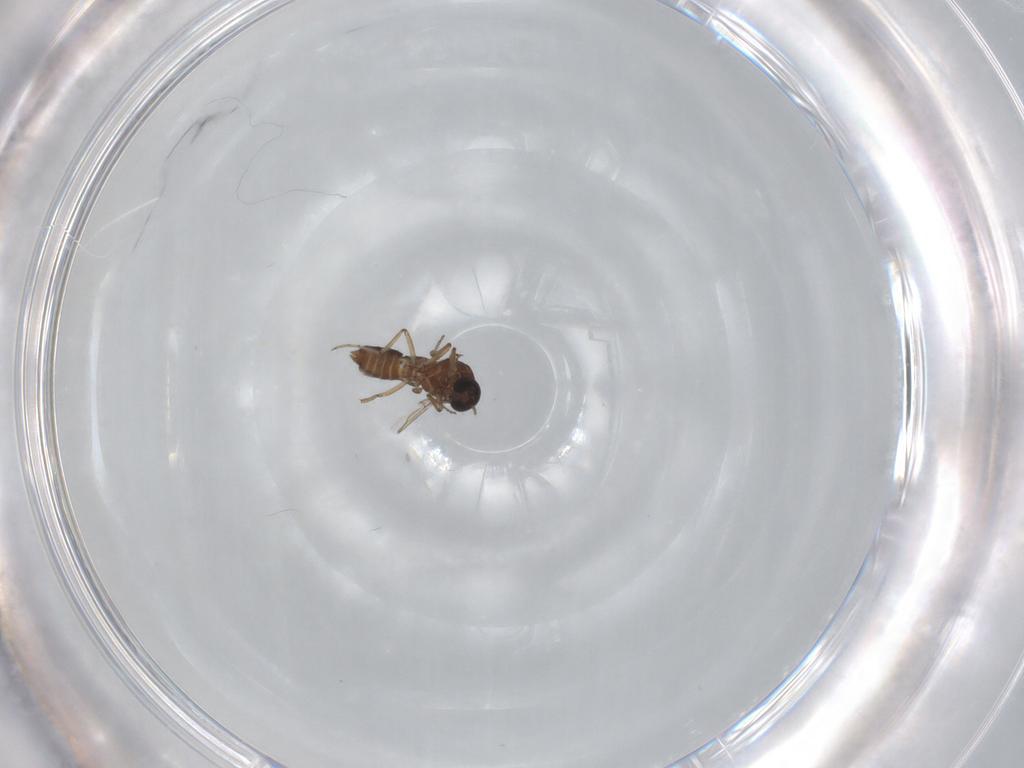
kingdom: Animalia
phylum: Arthropoda
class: Insecta
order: Diptera
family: Ceratopogonidae
